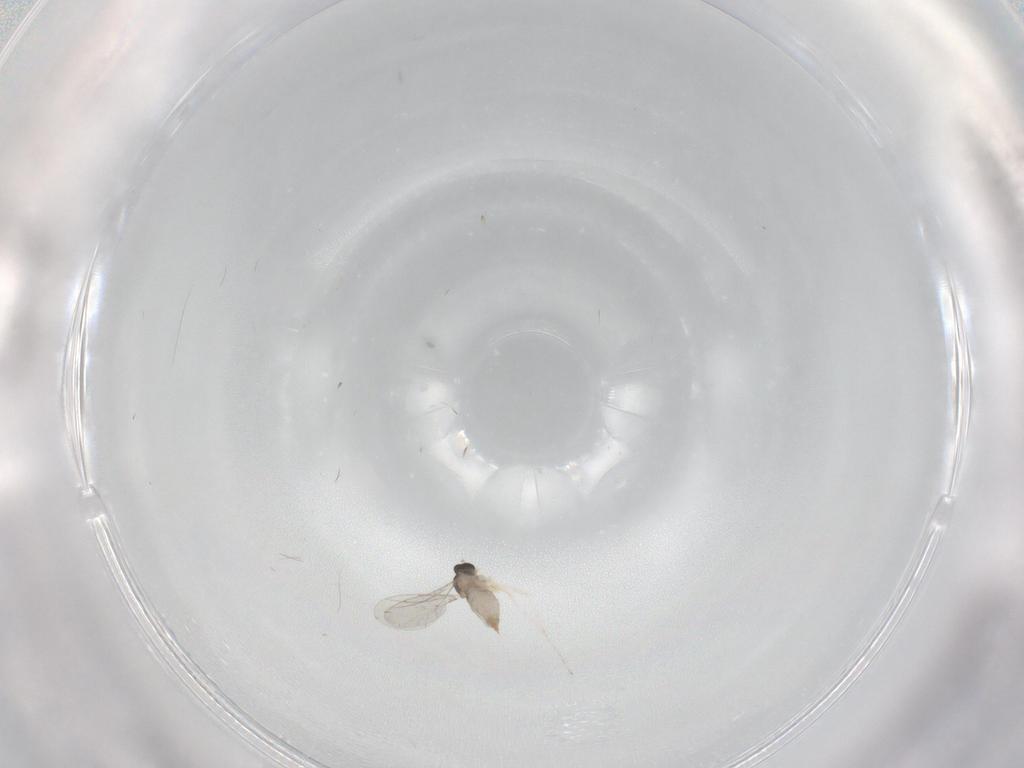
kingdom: Animalia
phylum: Arthropoda
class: Insecta
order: Diptera
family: Cecidomyiidae
